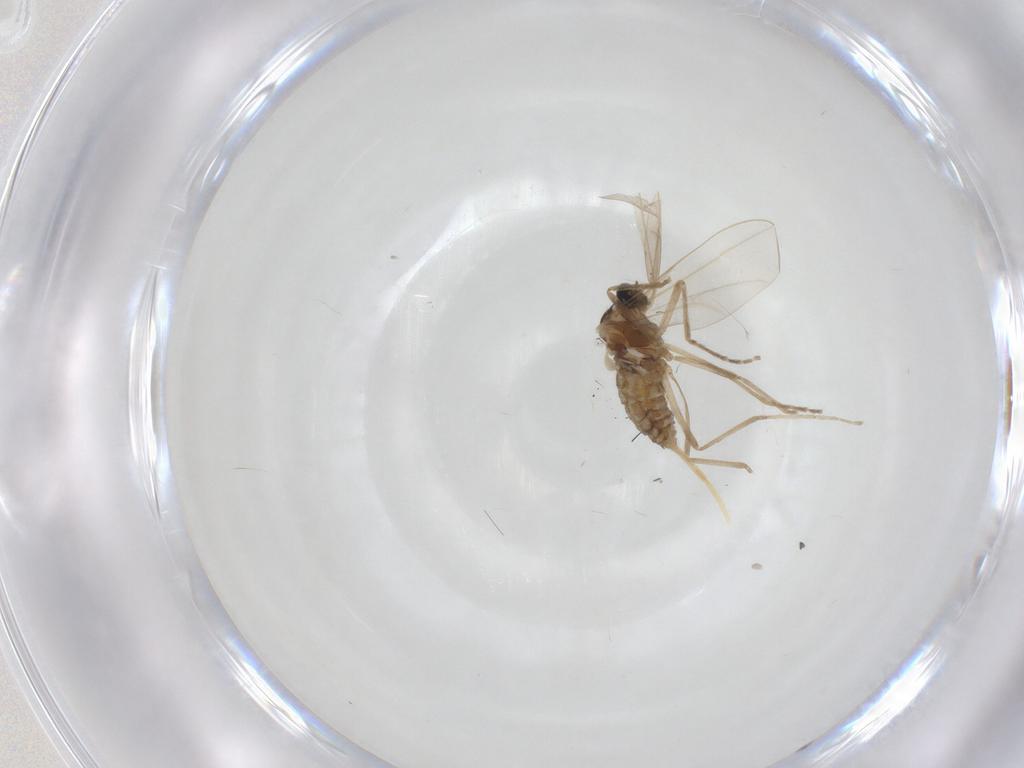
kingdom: Animalia
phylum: Arthropoda
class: Insecta
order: Diptera
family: Cecidomyiidae
